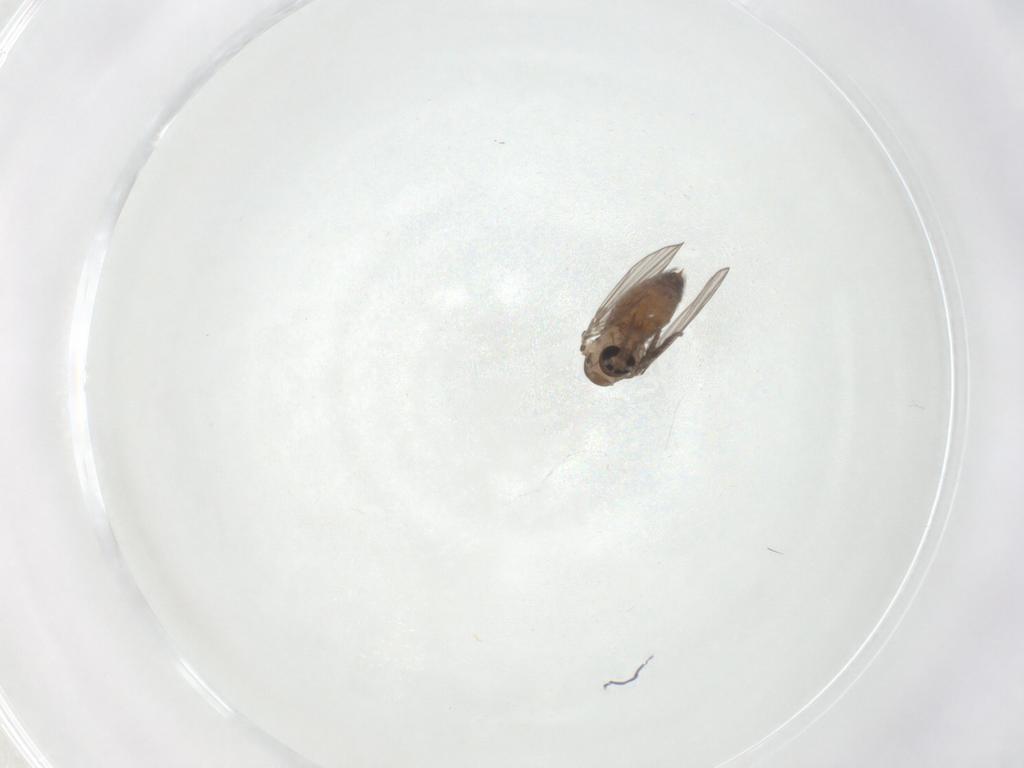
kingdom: Animalia
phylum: Arthropoda
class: Insecta
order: Diptera
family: Psychodidae
